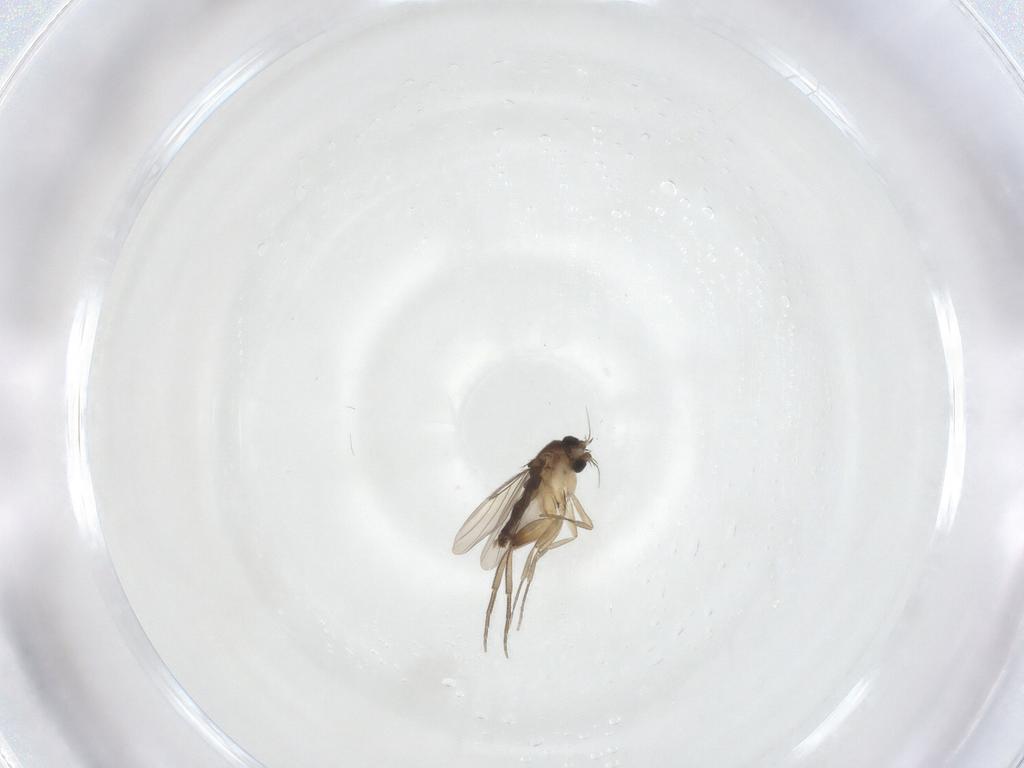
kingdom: Animalia
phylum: Arthropoda
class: Insecta
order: Diptera
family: Phoridae
